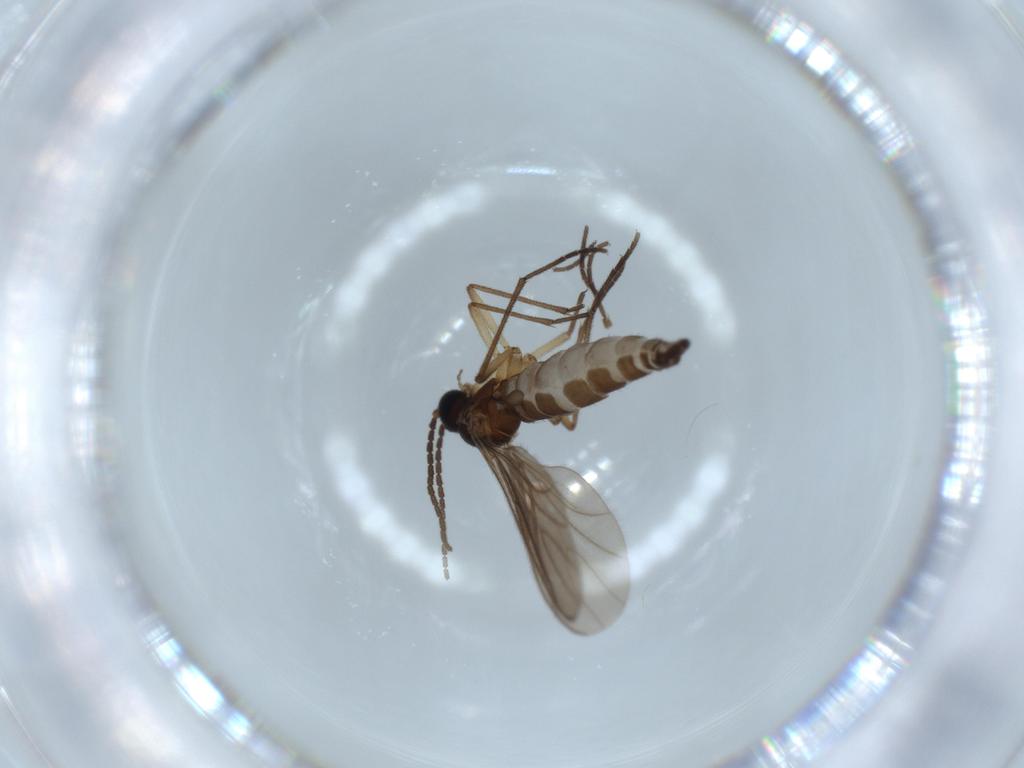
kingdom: Animalia
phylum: Arthropoda
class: Insecta
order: Diptera
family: Sciaridae
